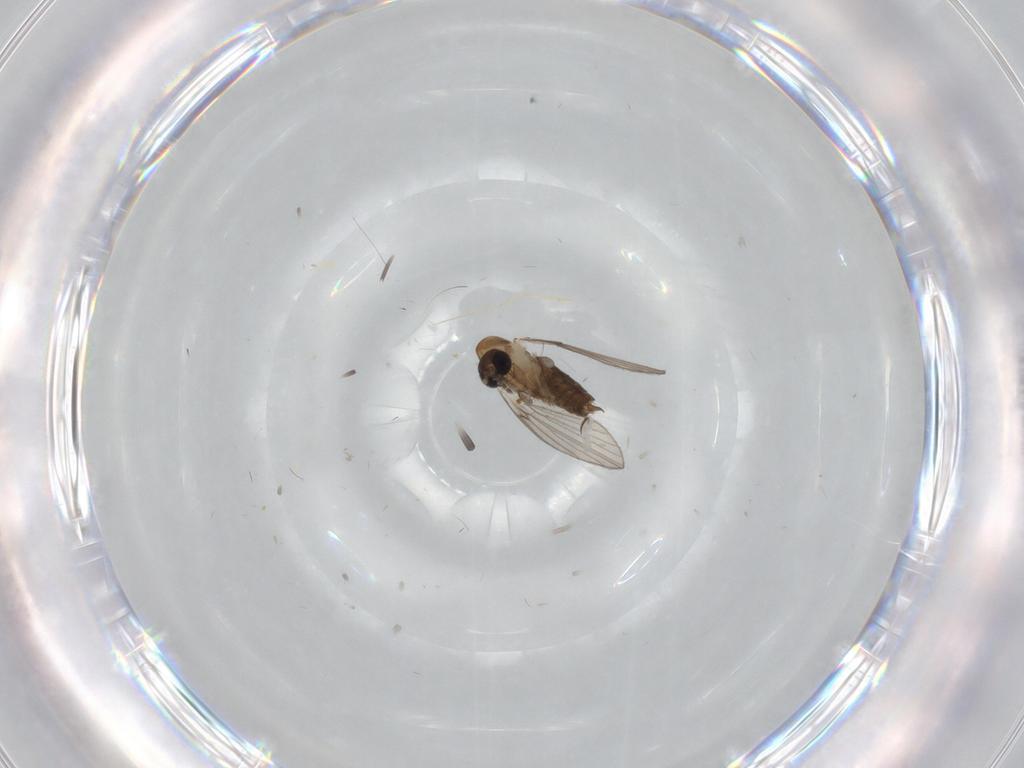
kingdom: Animalia
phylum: Arthropoda
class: Insecta
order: Diptera
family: Psychodidae
